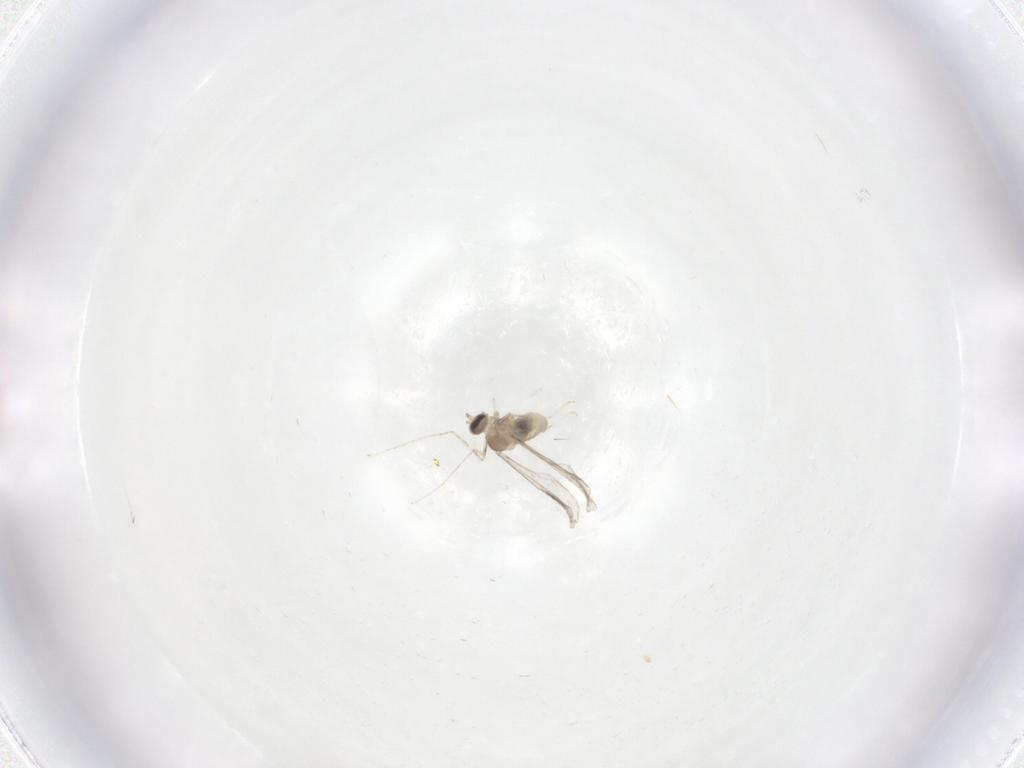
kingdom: Animalia
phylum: Arthropoda
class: Insecta
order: Diptera
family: Cecidomyiidae
